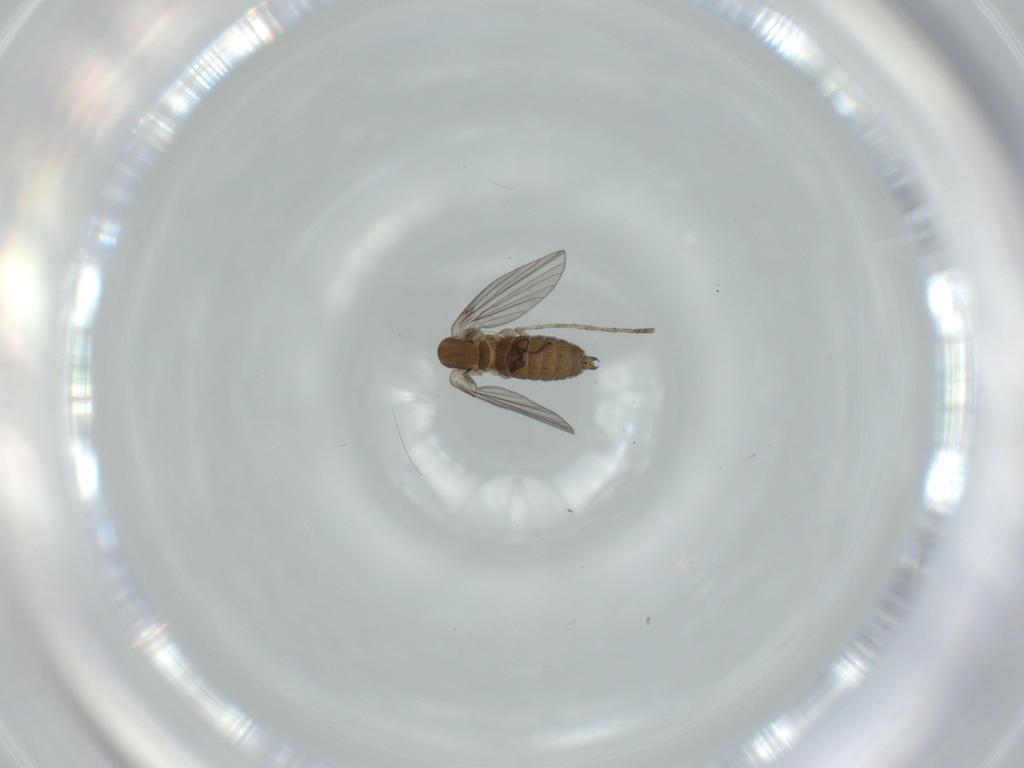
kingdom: Animalia
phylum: Arthropoda
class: Insecta
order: Diptera
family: Psychodidae
